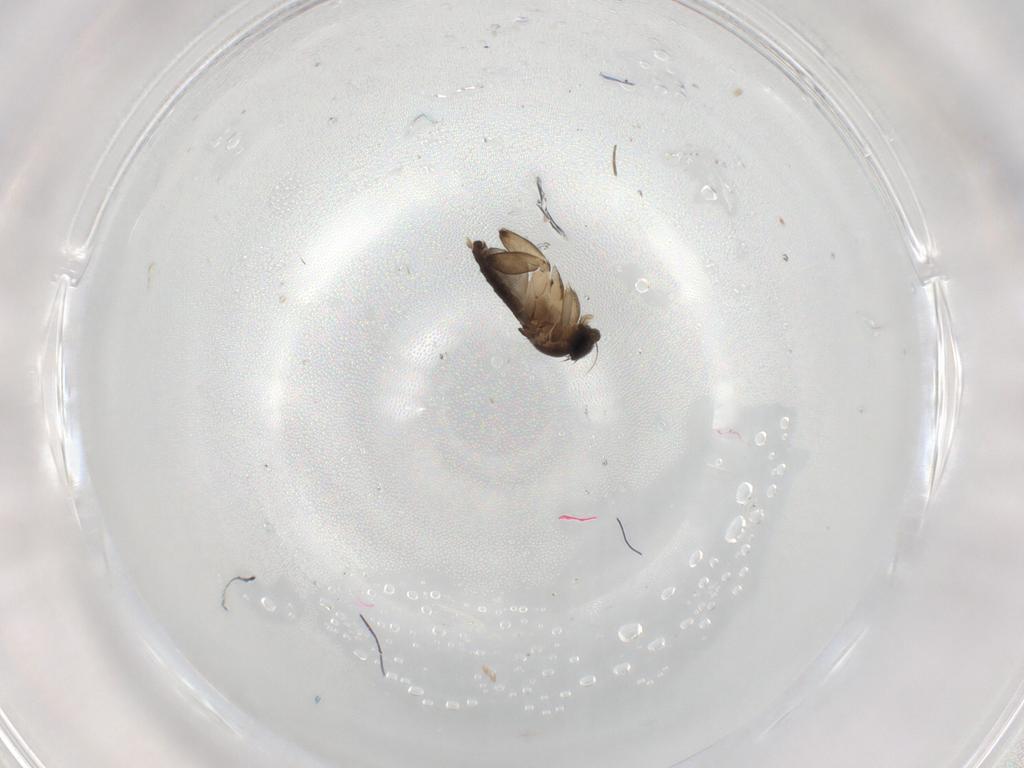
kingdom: Animalia
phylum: Arthropoda
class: Insecta
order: Diptera
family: Phoridae
